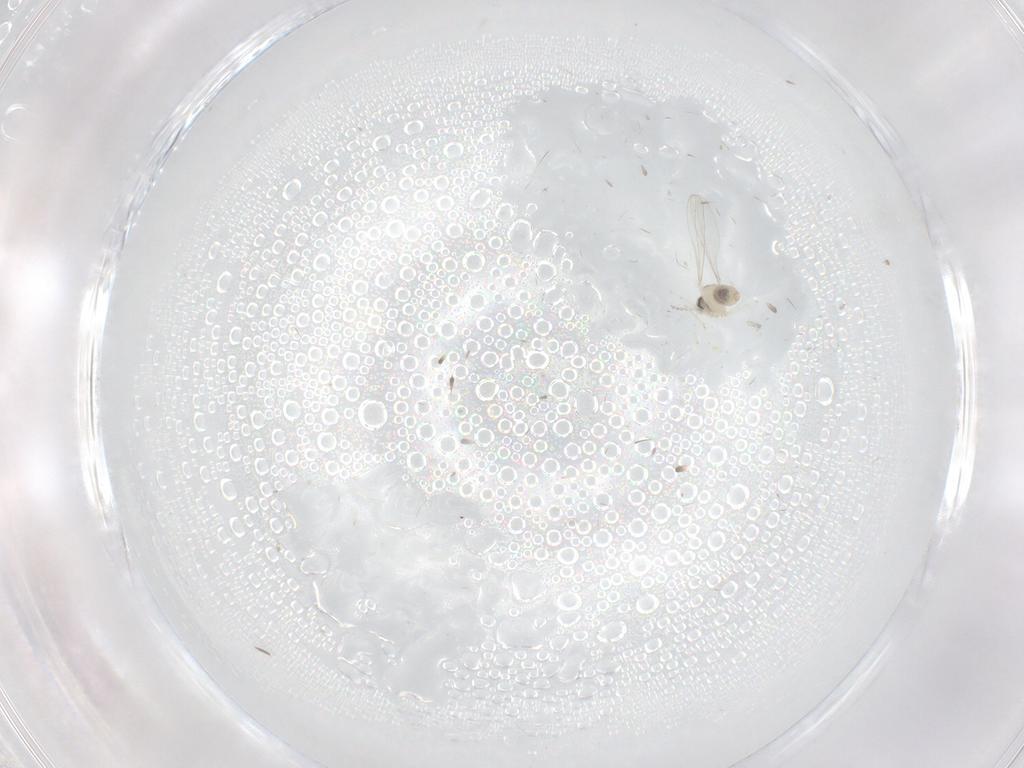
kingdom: Animalia
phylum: Arthropoda
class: Insecta
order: Diptera
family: Cecidomyiidae
